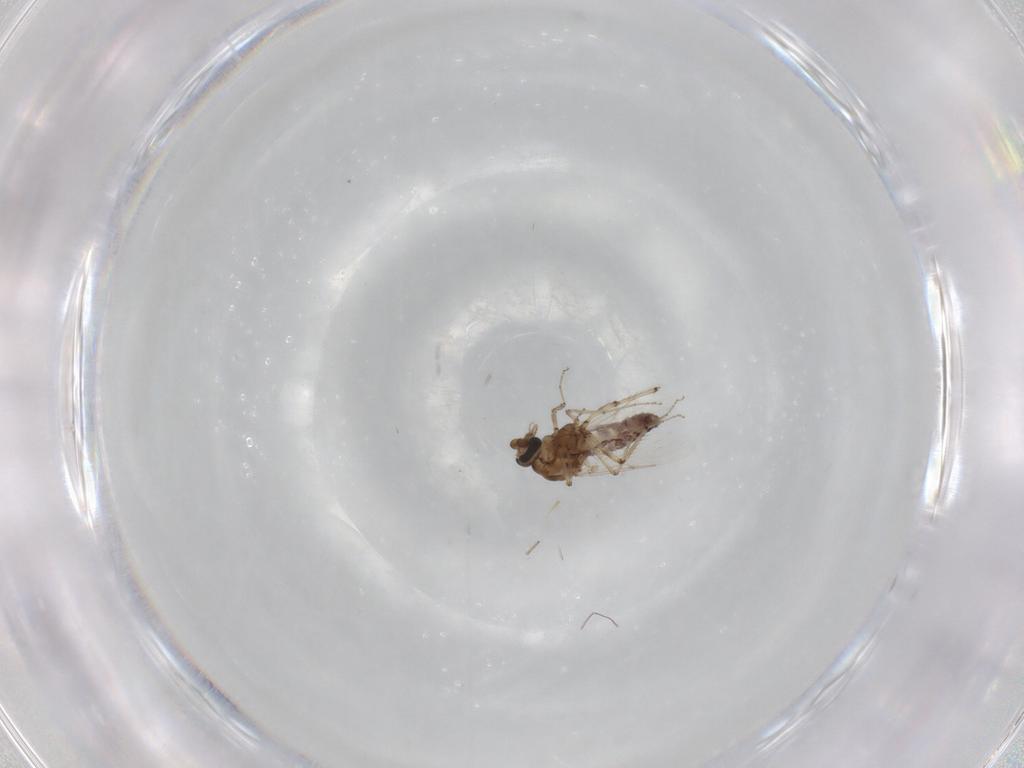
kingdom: Animalia
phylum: Arthropoda
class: Insecta
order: Diptera
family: Ceratopogonidae
